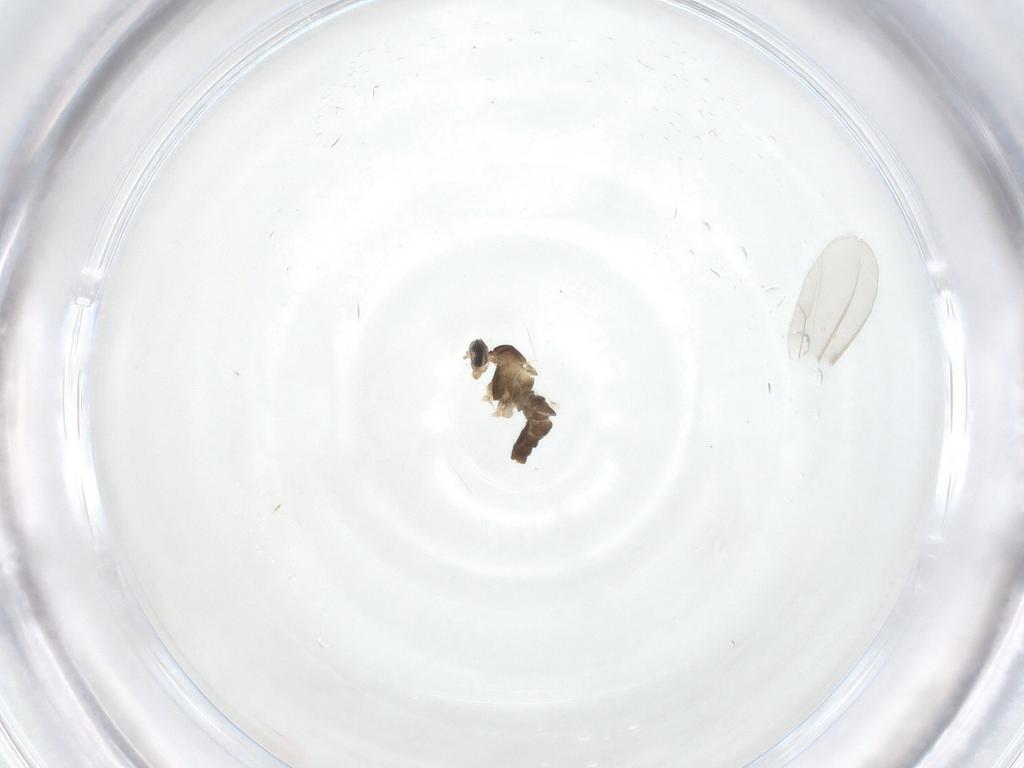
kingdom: Animalia
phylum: Arthropoda
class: Insecta
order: Diptera
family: Cecidomyiidae
